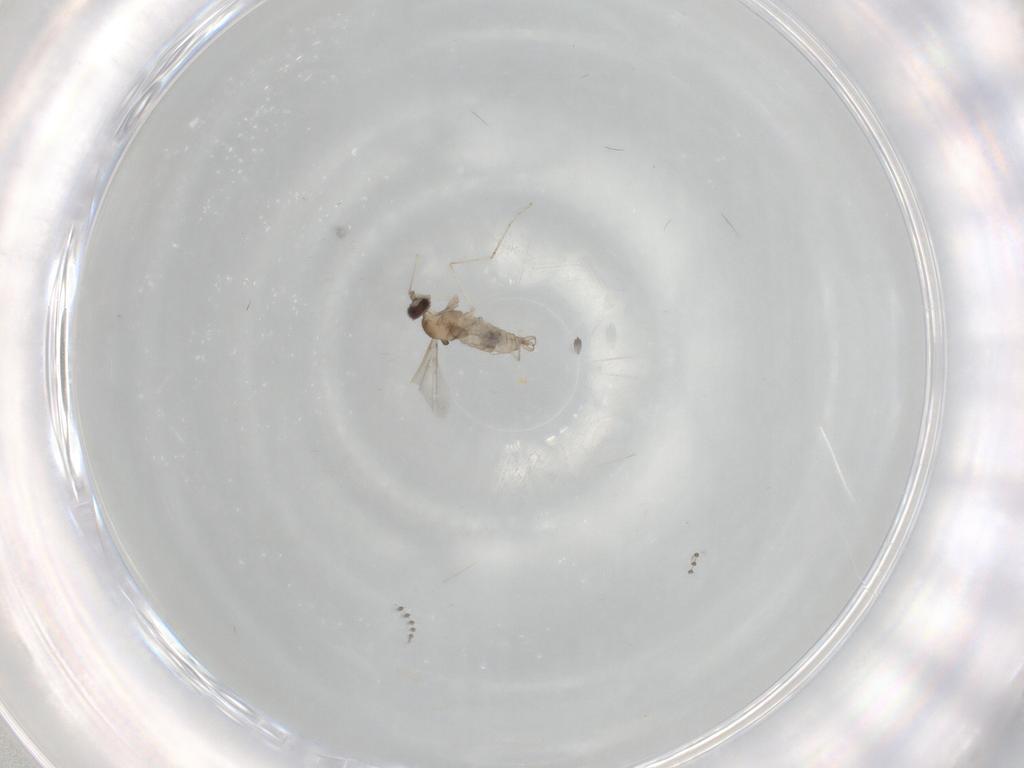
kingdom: Animalia
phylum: Arthropoda
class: Insecta
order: Diptera
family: Cecidomyiidae
